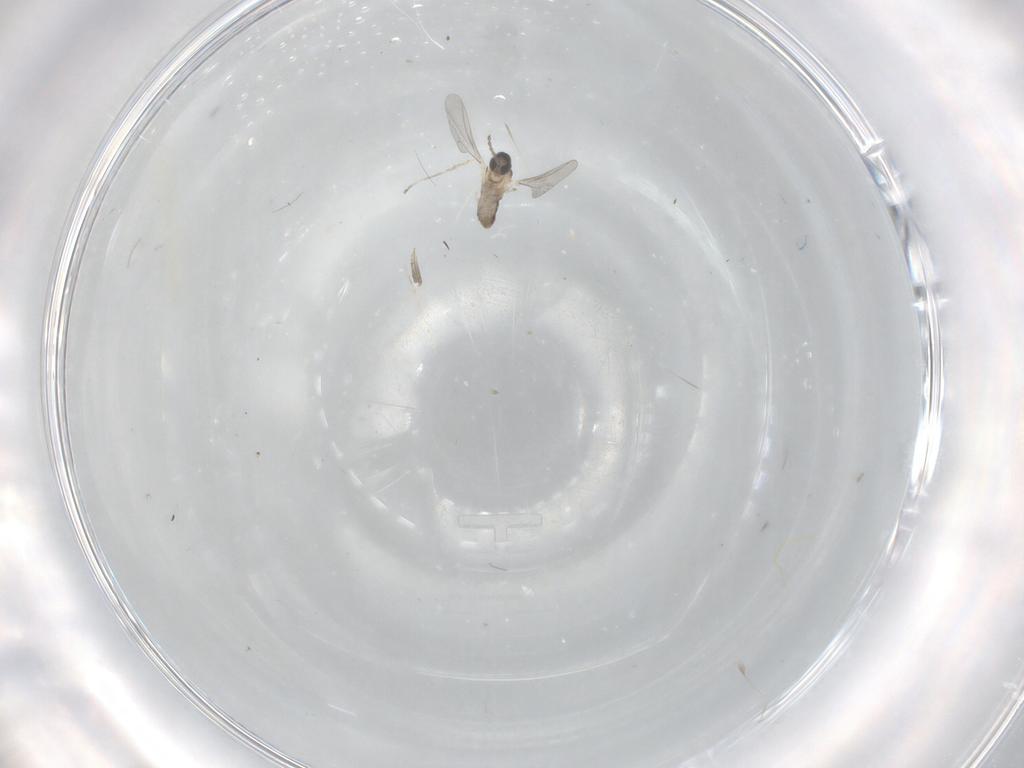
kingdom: Animalia
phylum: Arthropoda
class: Insecta
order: Diptera
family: Cecidomyiidae
